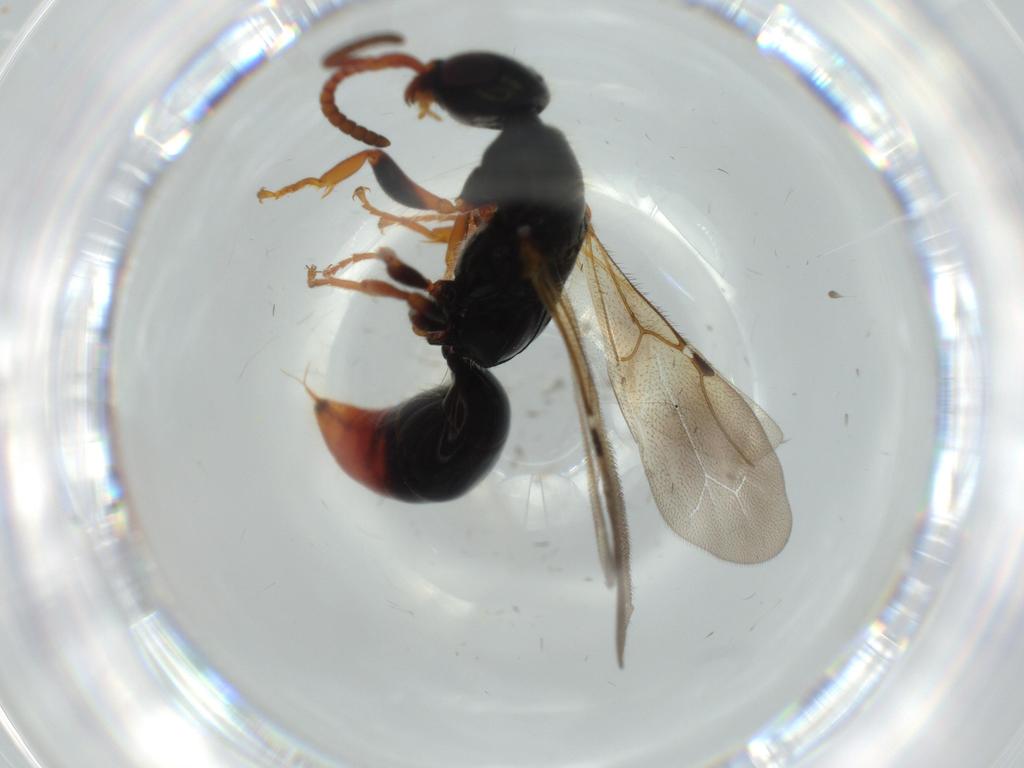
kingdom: Animalia
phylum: Arthropoda
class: Insecta
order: Hymenoptera
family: Bethylidae
